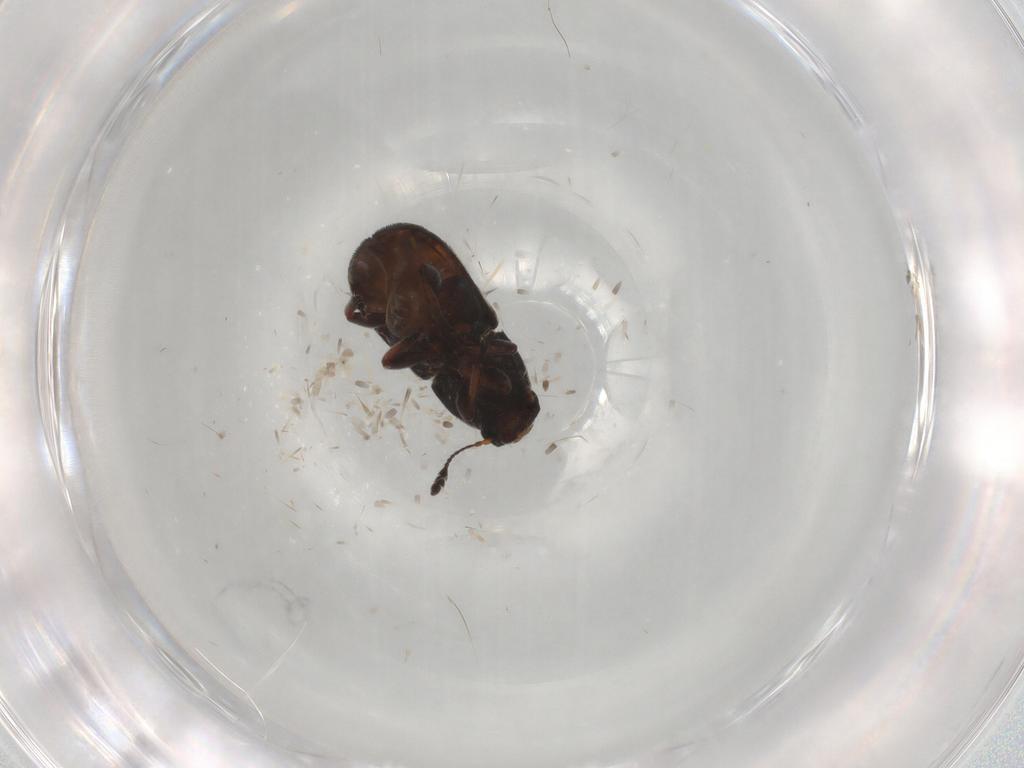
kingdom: Animalia
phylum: Arthropoda
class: Insecta
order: Coleoptera
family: Anthribidae
